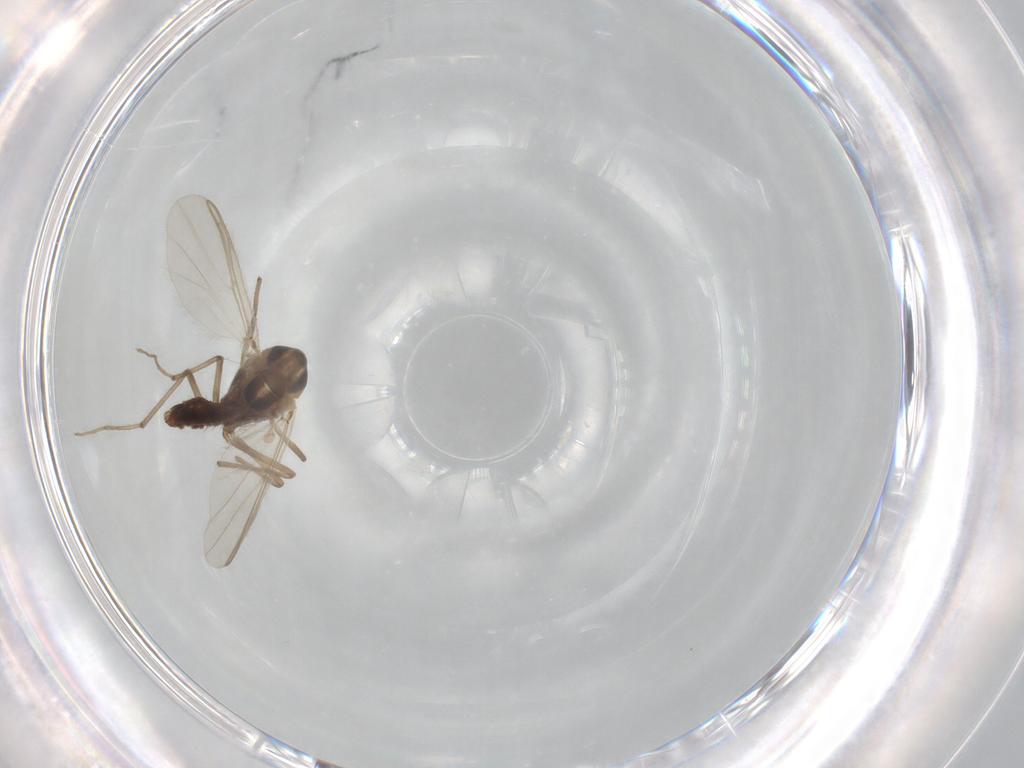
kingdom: Animalia
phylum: Arthropoda
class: Insecta
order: Diptera
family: Chironomidae
